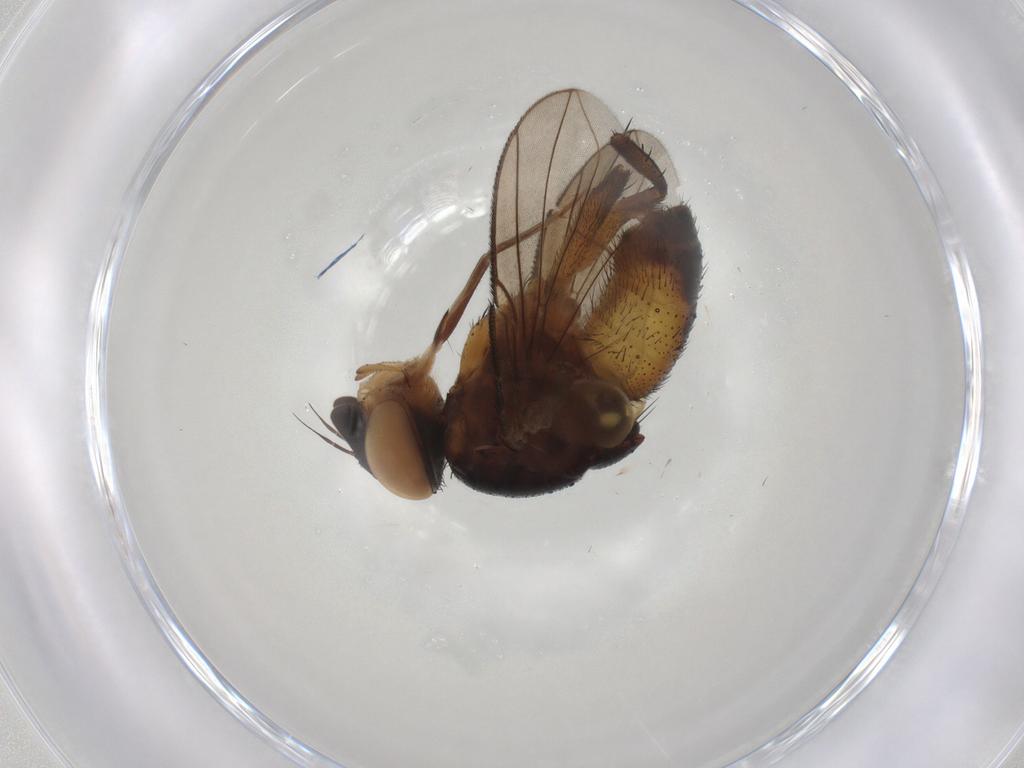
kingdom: Animalia
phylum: Arthropoda
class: Insecta
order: Diptera
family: Tachinidae
